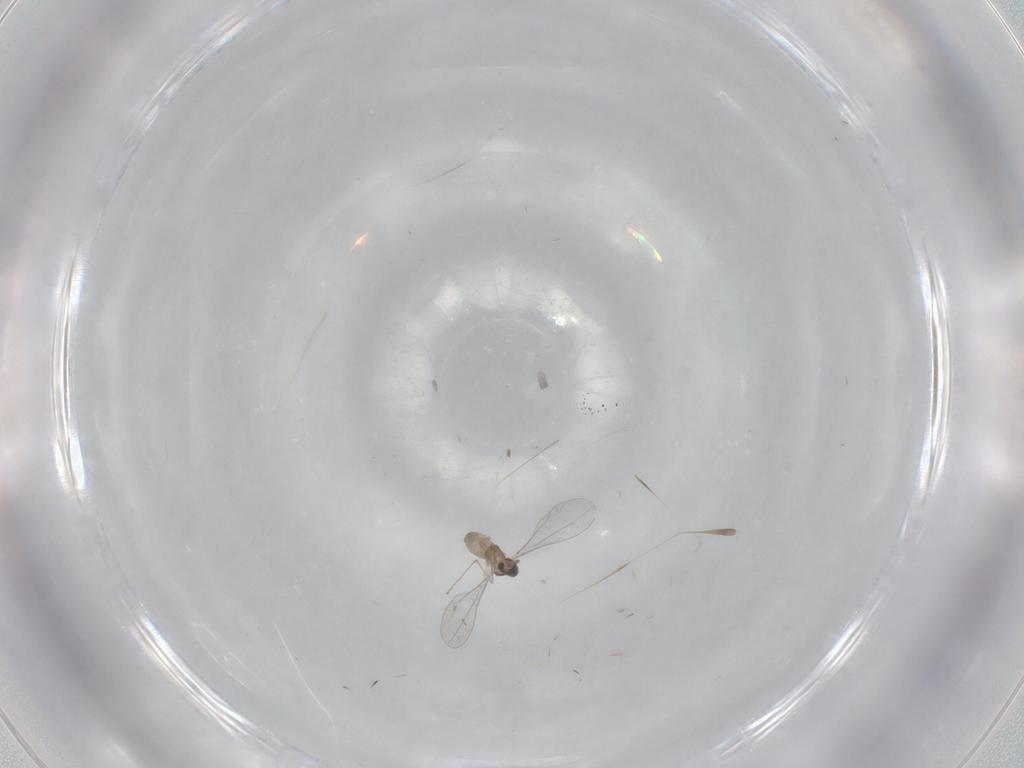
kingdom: Animalia
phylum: Arthropoda
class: Insecta
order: Diptera
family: Cecidomyiidae
